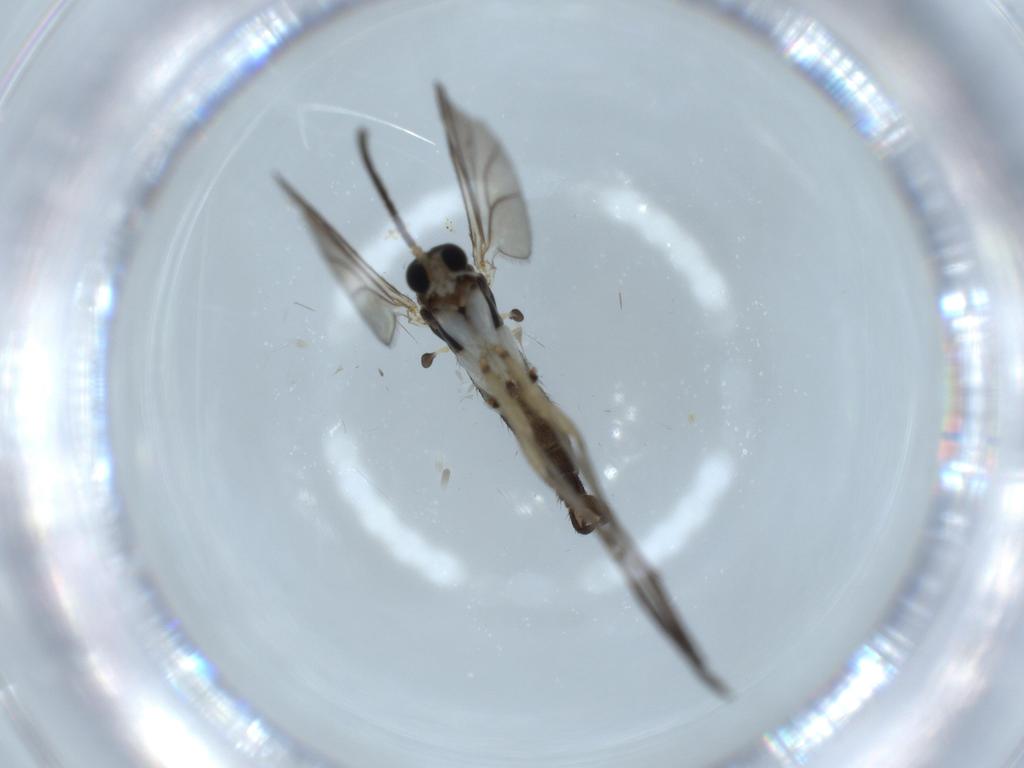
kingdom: Animalia
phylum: Arthropoda
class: Insecta
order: Diptera
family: Sciaridae
